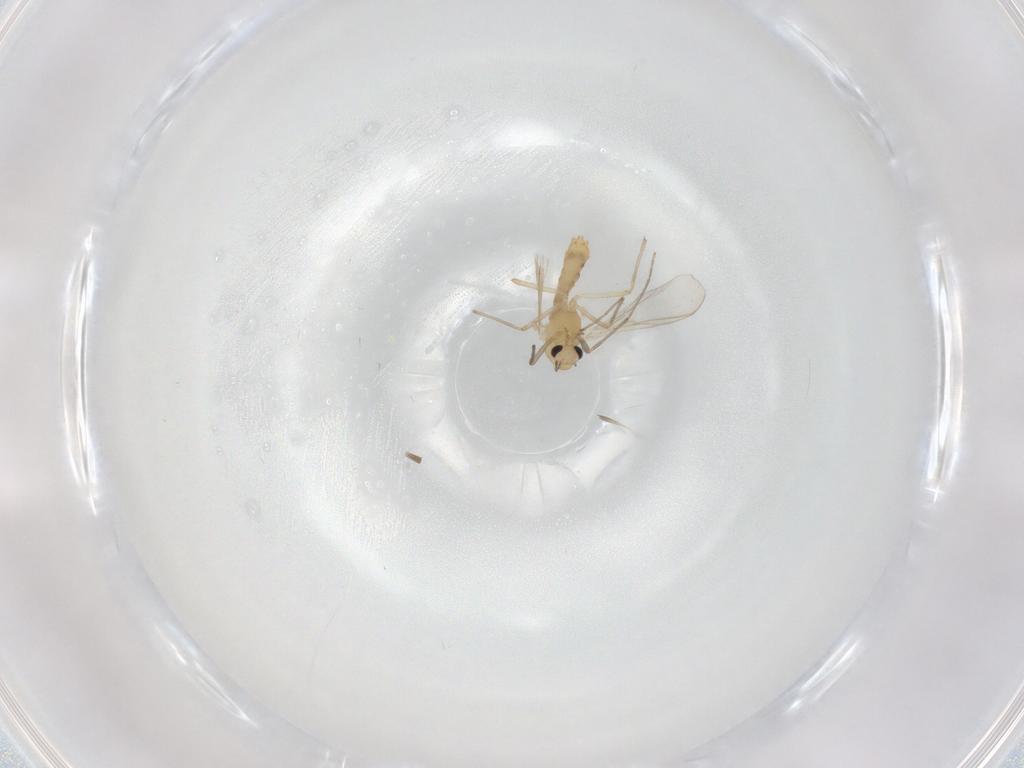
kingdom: Animalia
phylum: Arthropoda
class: Insecta
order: Diptera
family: Chironomidae
